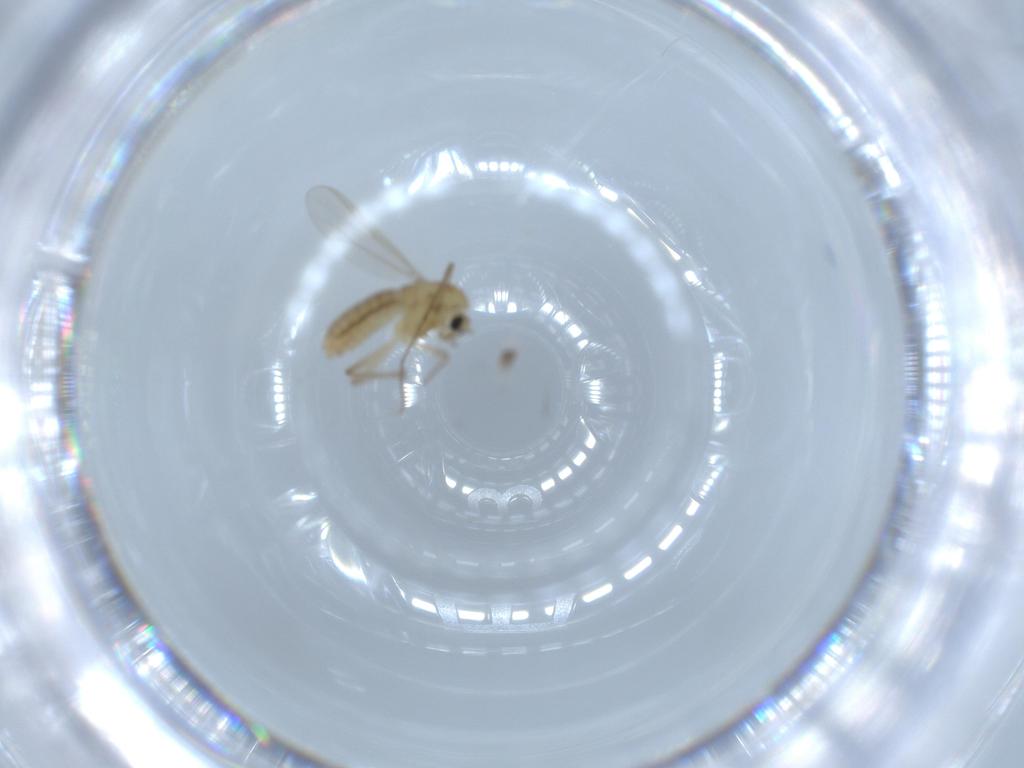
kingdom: Animalia
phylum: Arthropoda
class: Insecta
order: Diptera
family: Chironomidae
